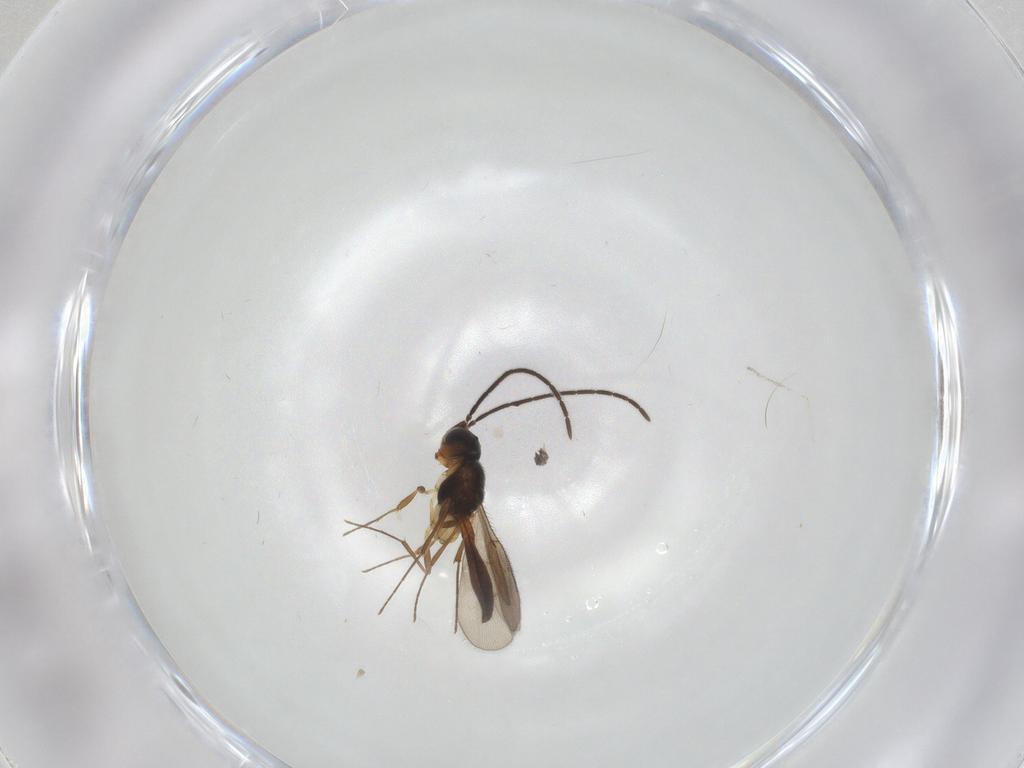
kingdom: Animalia
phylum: Arthropoda
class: Insecta
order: Hymenoptera
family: Scelionidae
